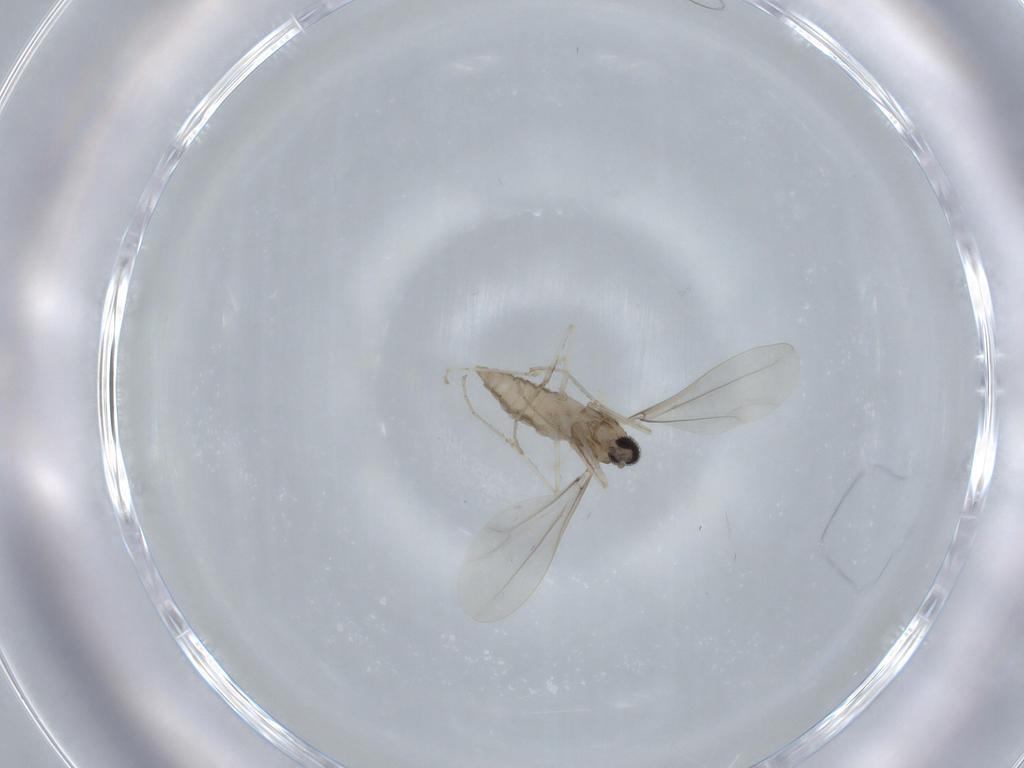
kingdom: Animalia
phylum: Arthropoda
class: Insecta
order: Diptera
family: Cecidomyiidae
